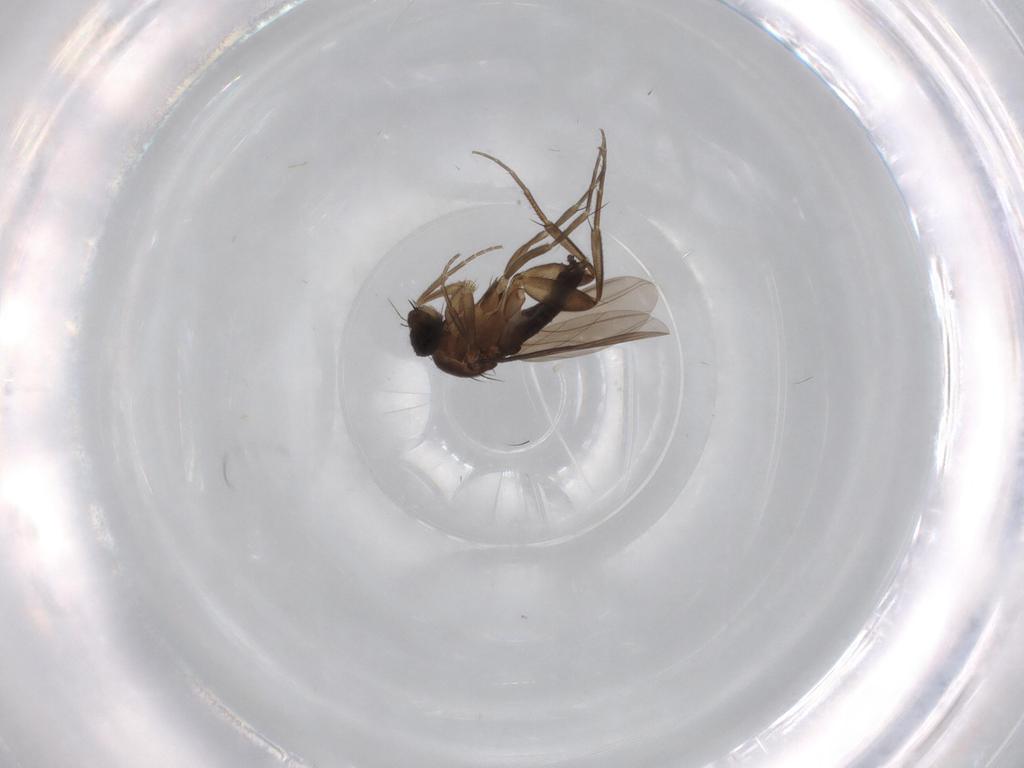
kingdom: Animalia
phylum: Arthropoda
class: Insecta
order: Diptera
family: Phoridae
